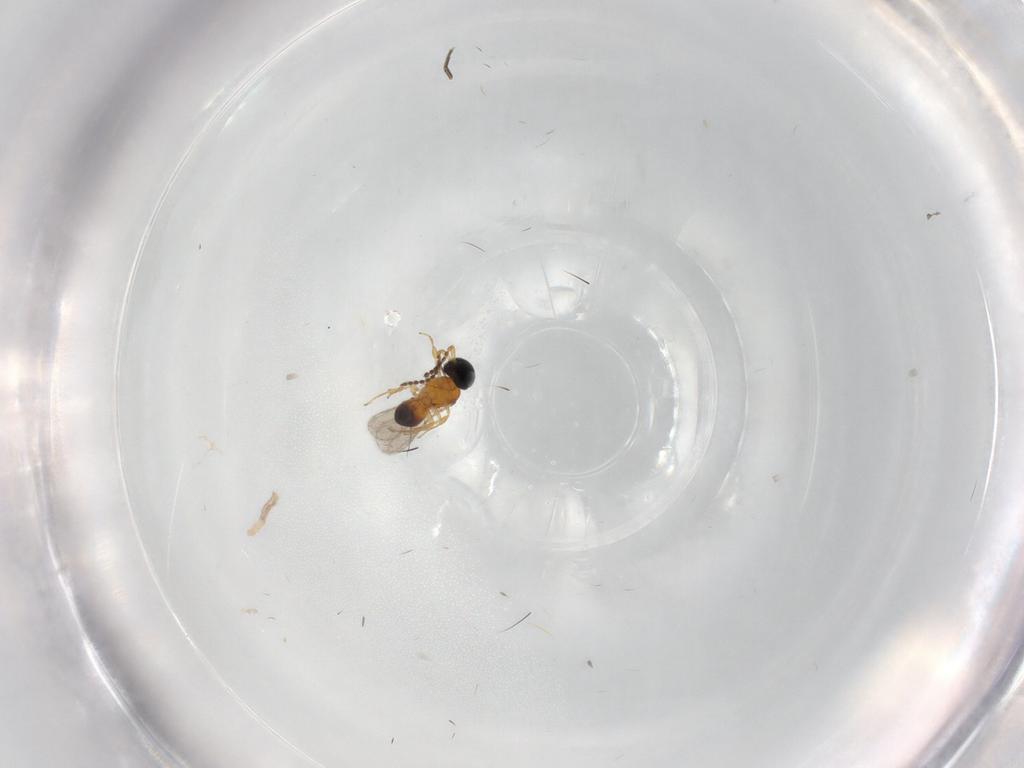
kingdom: Animalia
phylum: Arthropoda
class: Insecta
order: Hymenoptera
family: Scelionidae
